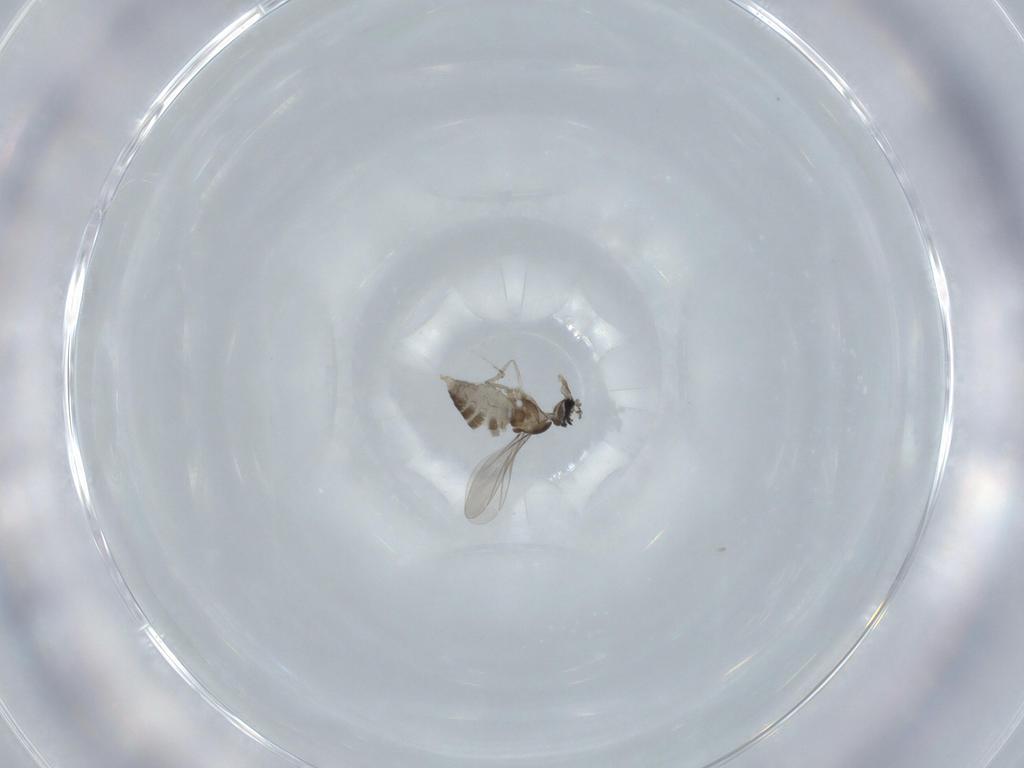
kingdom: Animalia
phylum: Arthropoda
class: Insecta
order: Diptera
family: Cecidomyiidae
